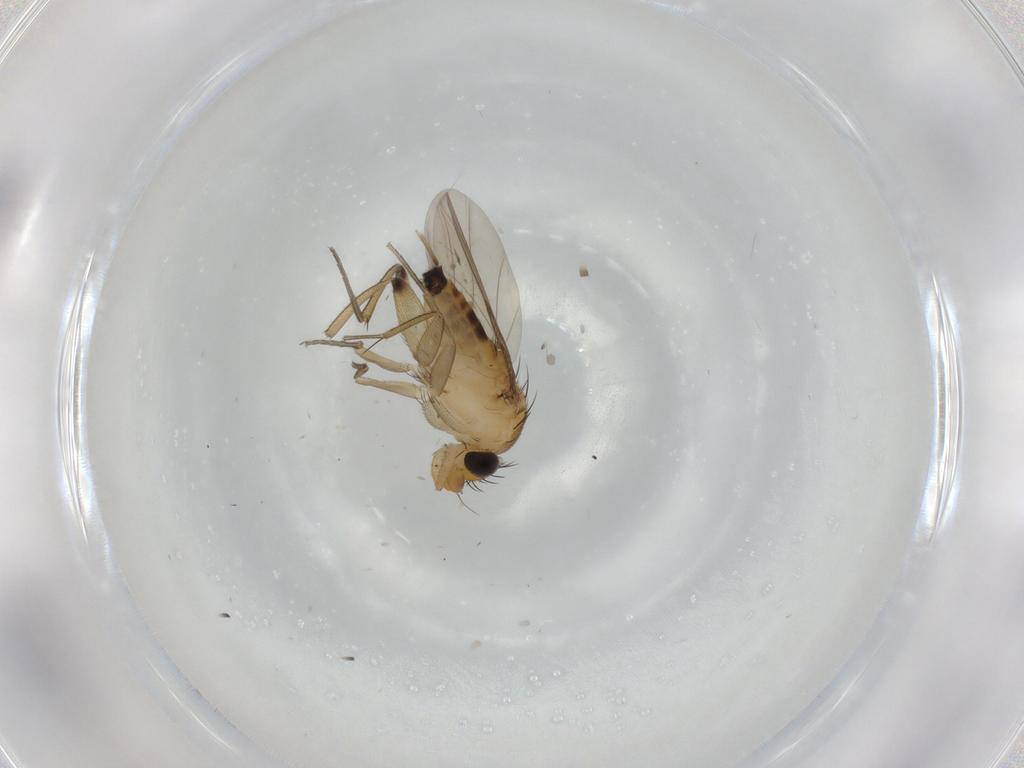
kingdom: Animalia
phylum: Arthropoda
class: Insecta
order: Diptera
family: Phoridae
